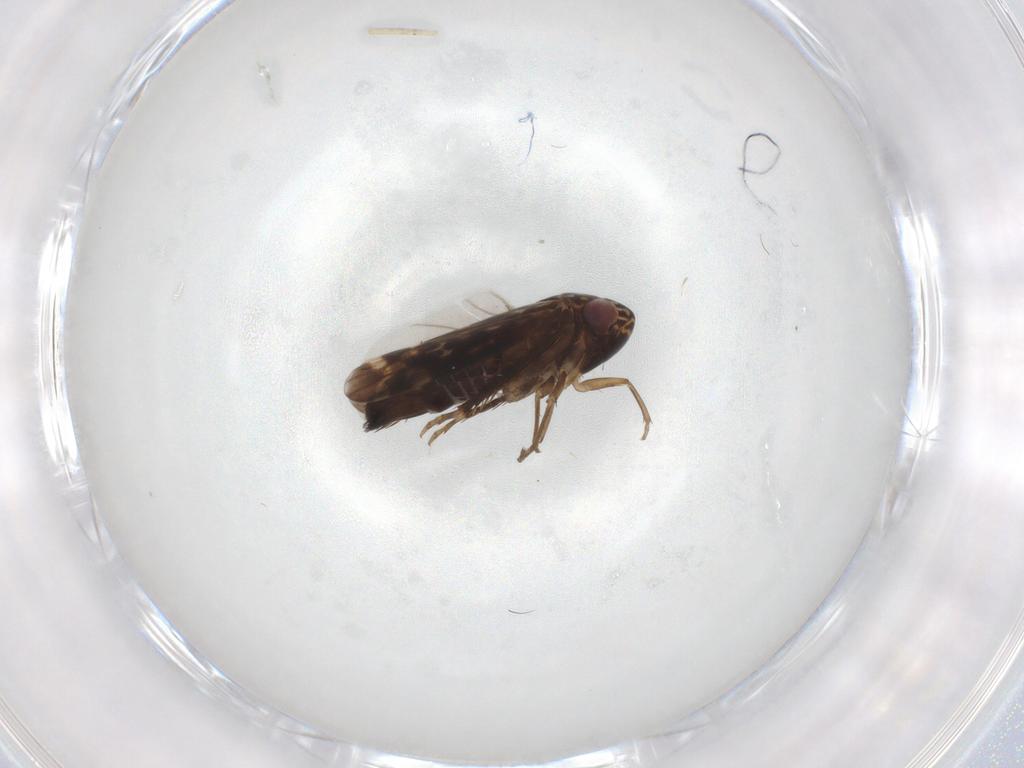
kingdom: Animalia
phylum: Arthropoda
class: Insecta
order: Hemiptera
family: Cicadellidae
